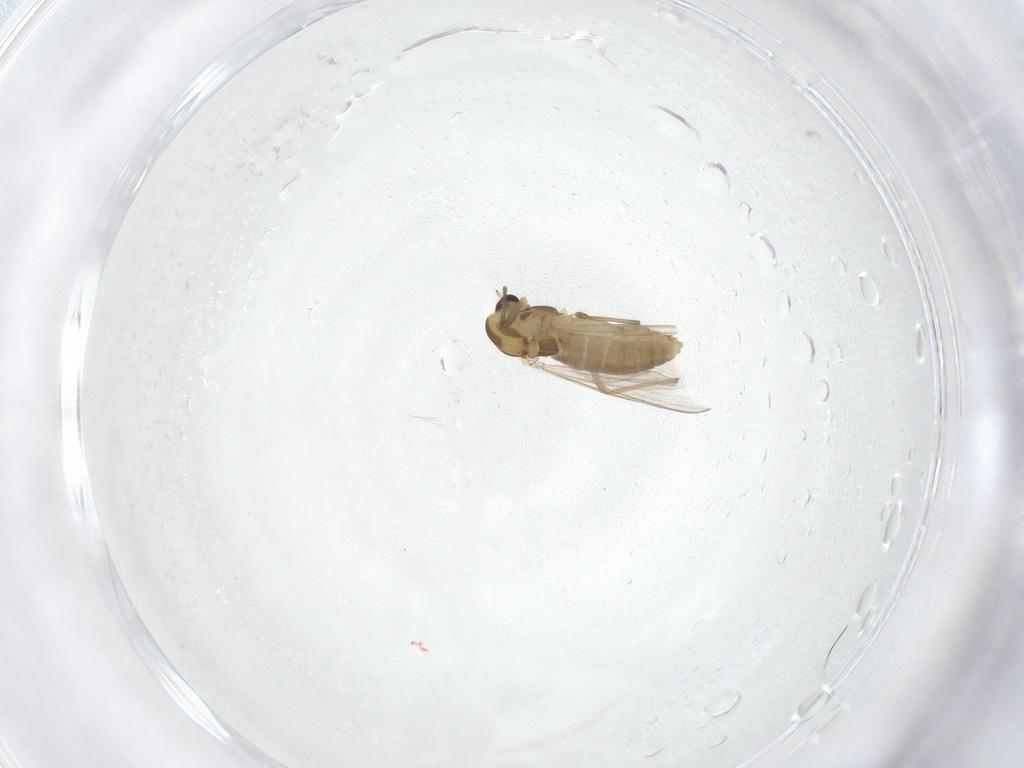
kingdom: Animalia
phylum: Arthropoda
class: Insecta
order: Diptera
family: Chironomidae
